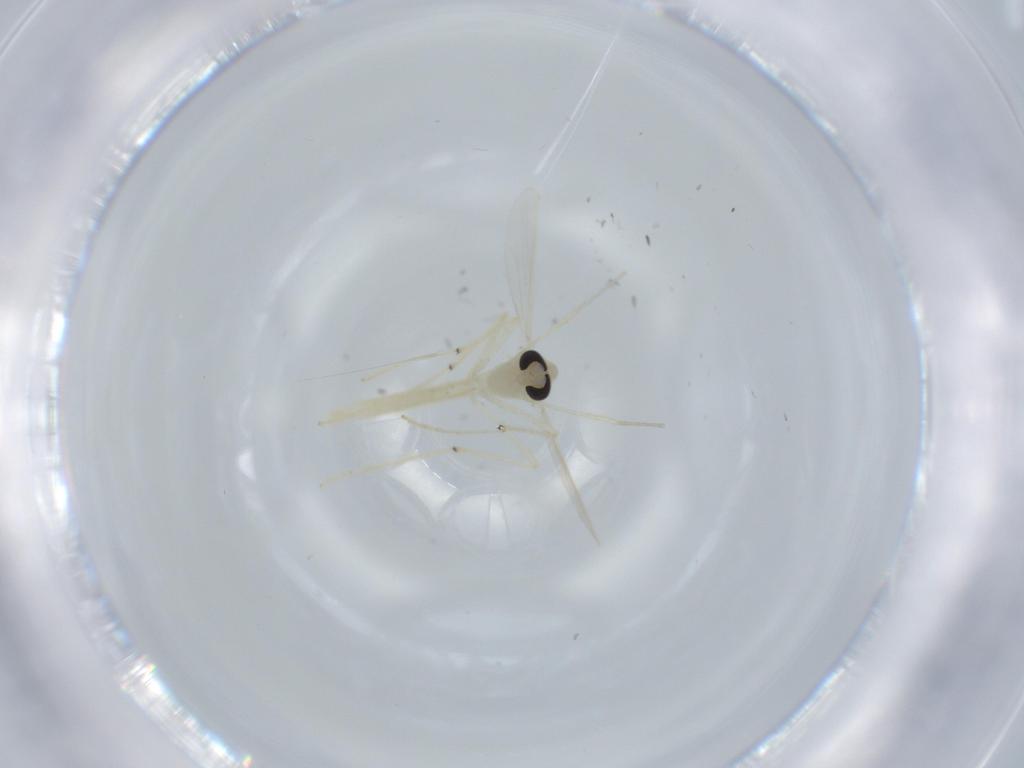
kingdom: Animalia
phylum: Arthropoda
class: Insecta
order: Diptera
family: Chironomidae
